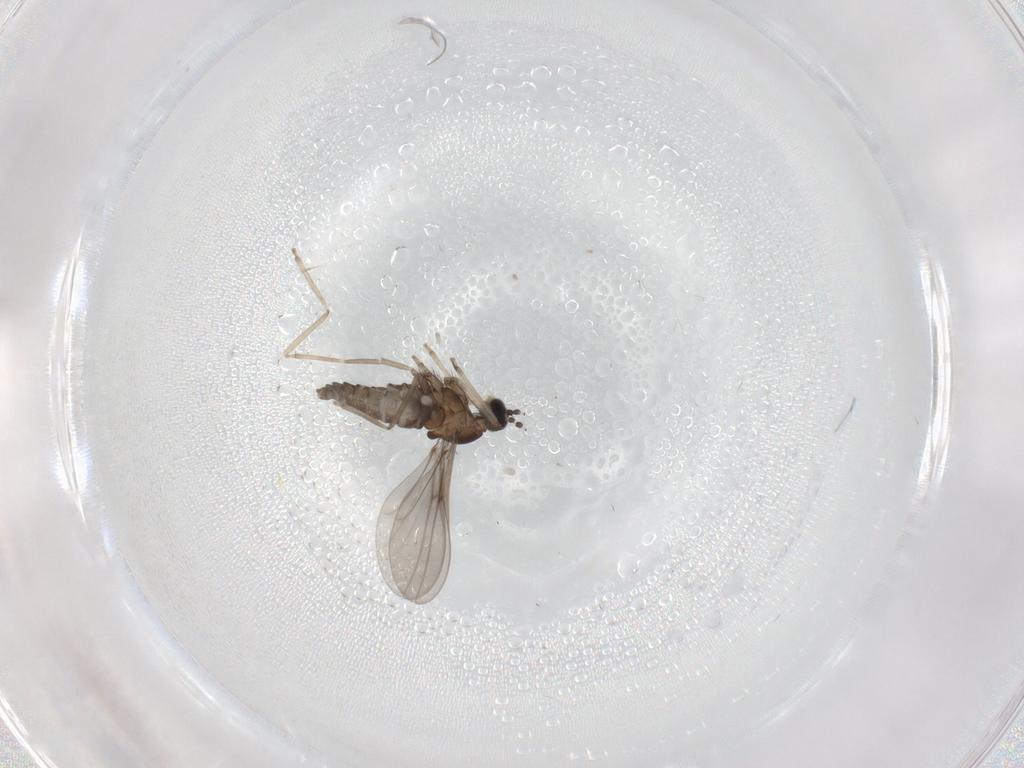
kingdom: Animalia
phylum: Arthropoda
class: Insecta
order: Diptera
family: Cecidomyiidae
